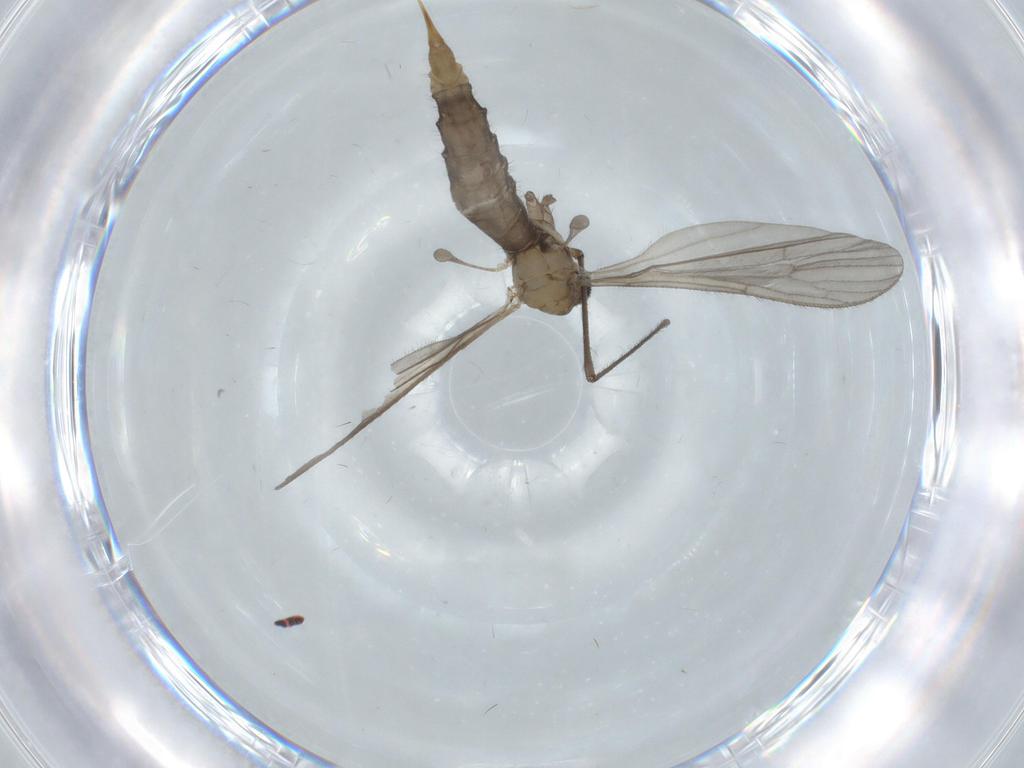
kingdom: Animalia
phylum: Arthropoda
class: Insecta
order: Diptera
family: Limoniidae
